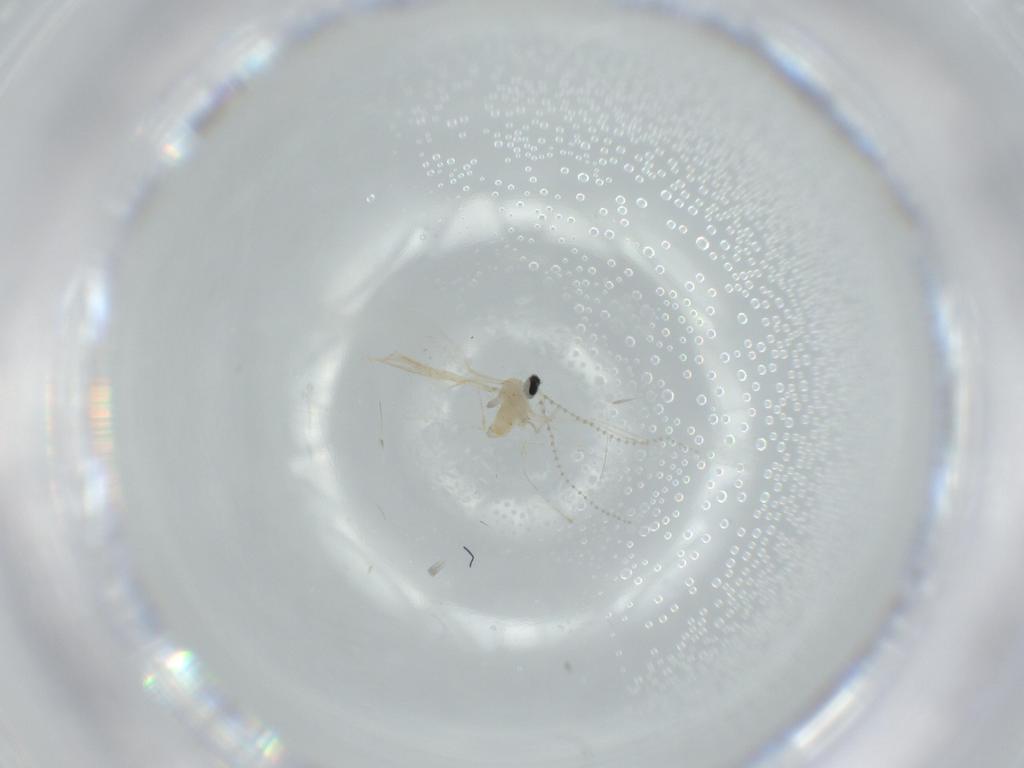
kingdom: Animalia
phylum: Arthropoda
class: Insecta
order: Diptera
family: Cecidomyiidae
